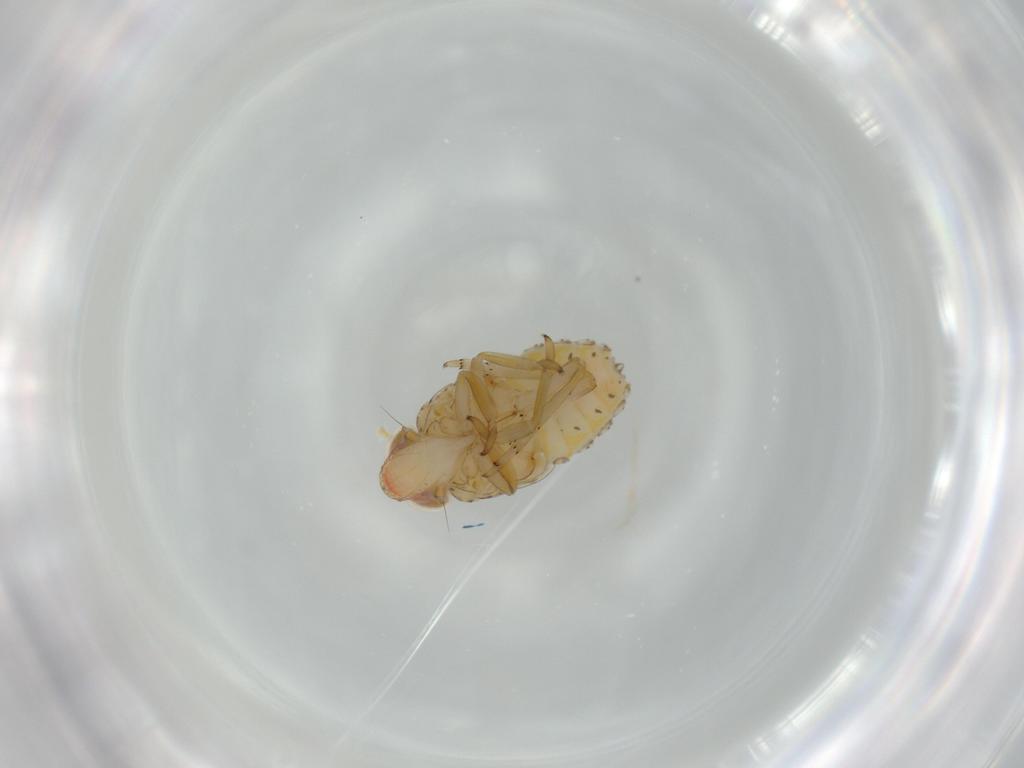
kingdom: Animalia
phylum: Arthropoda
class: Insecta
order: Hemiptera
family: Fulgoroidea_incertae_sedis
